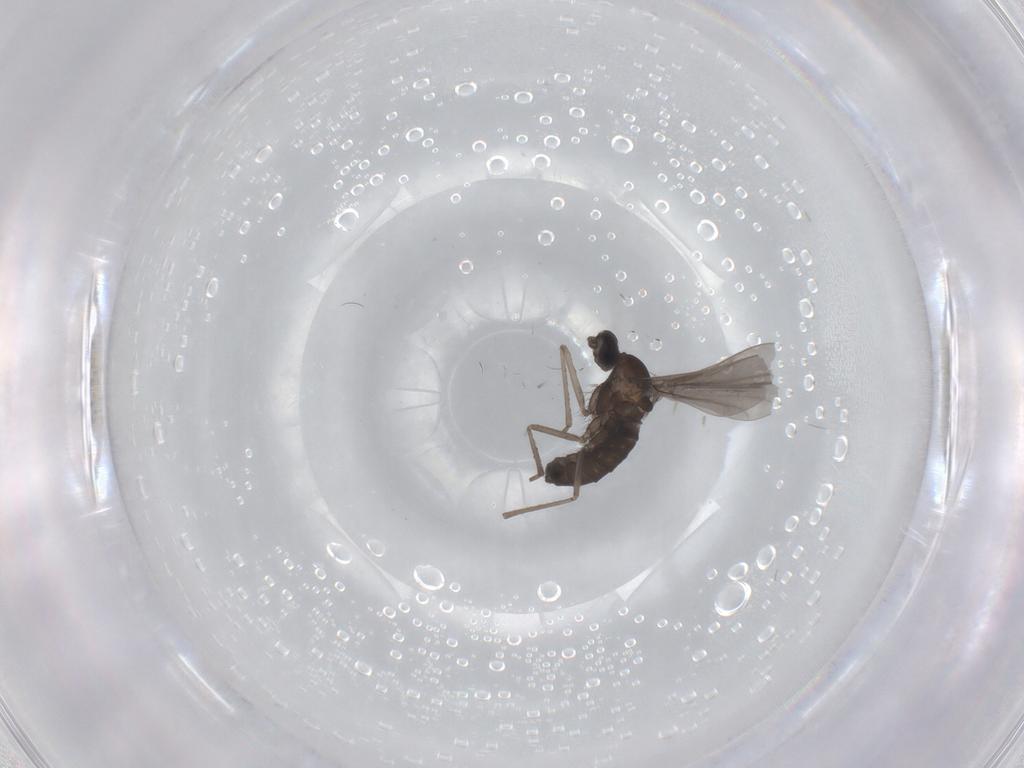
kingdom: Animalia
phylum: Arthropoda
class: Insecta
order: Diptera
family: Cecidomyiidae
